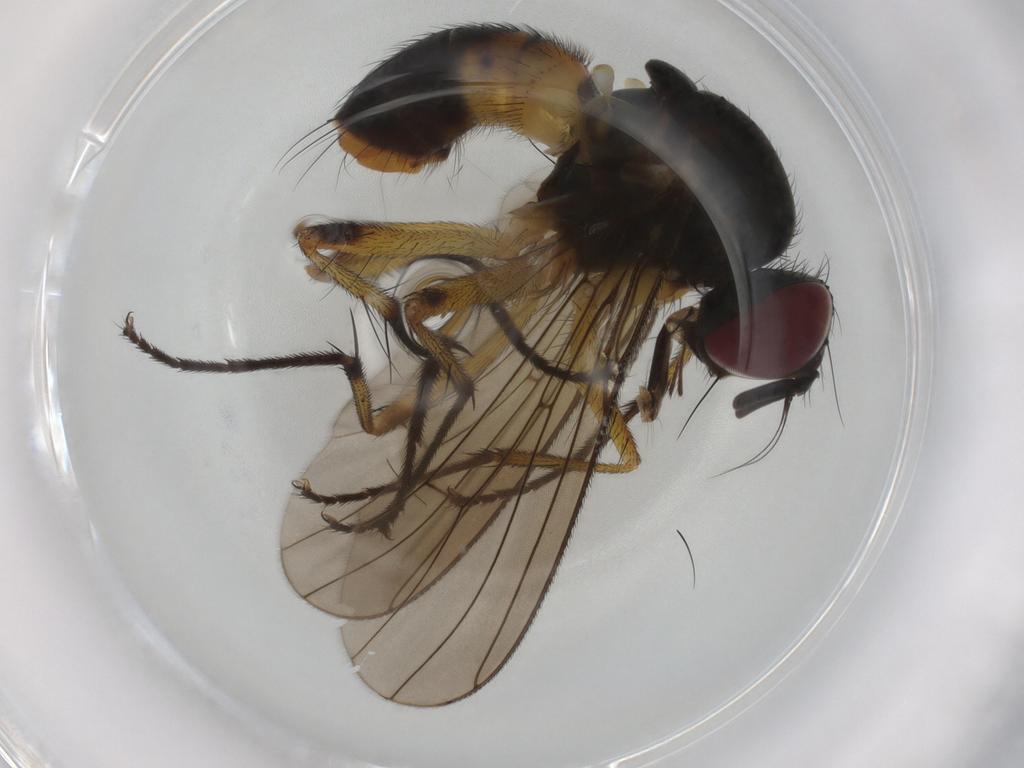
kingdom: Animalia
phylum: Arthropoda
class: Insecta
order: Diptera
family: Muscidae
